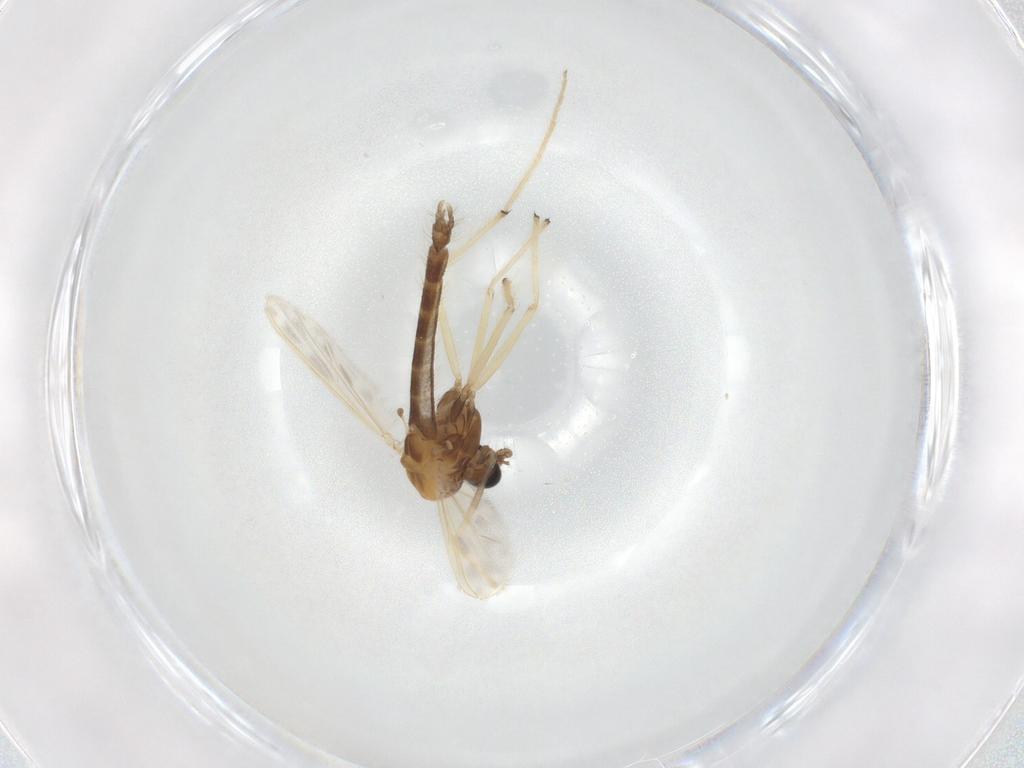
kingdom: Animalia
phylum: Arthropoda
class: Insecta
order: Diptera
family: Chironomidae
